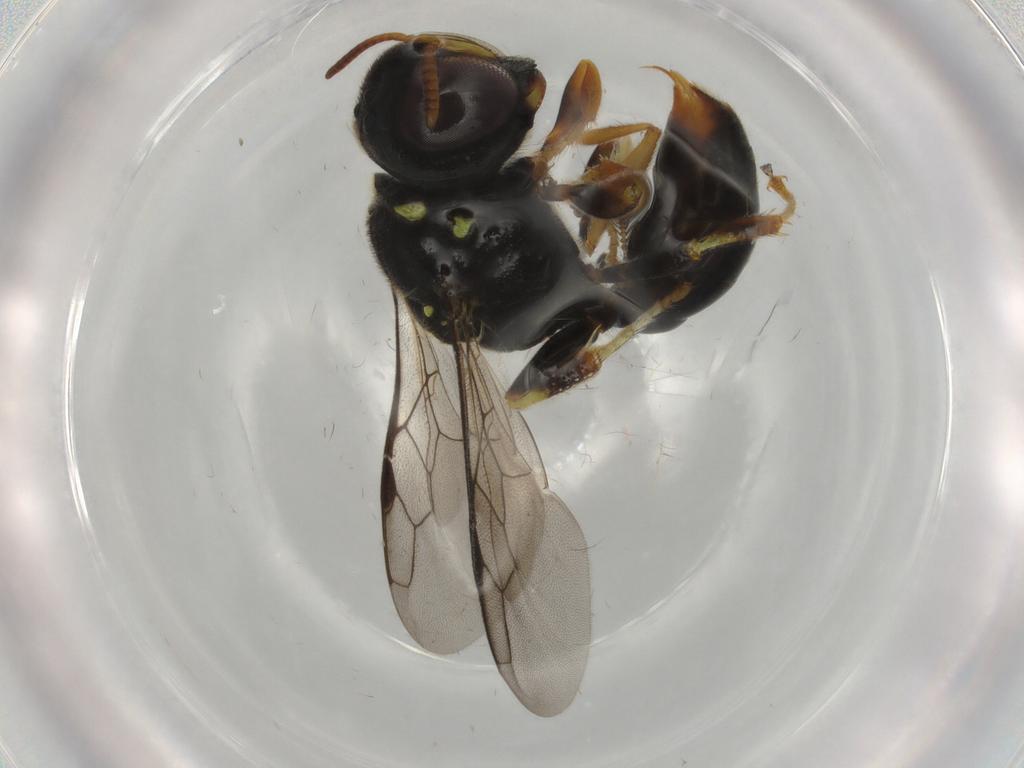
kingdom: Animalia
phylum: Arthropoda
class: Insecta
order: Hymenoptera
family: Crabronidae
